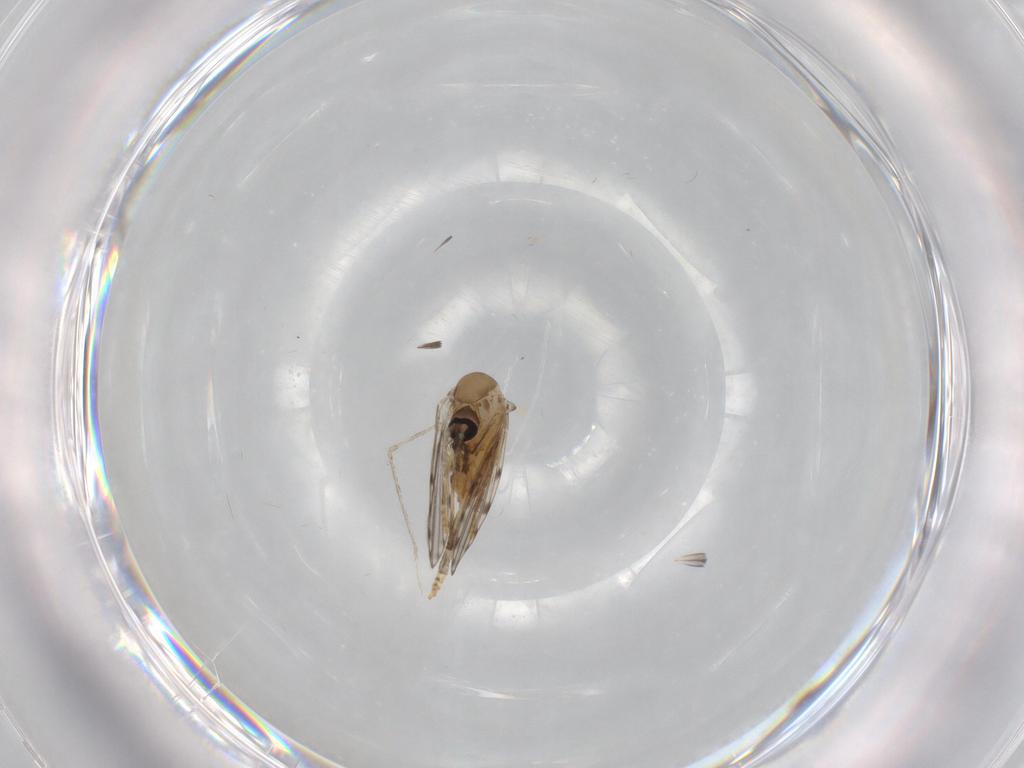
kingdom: Animalia
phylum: Arthropoda
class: Insecta
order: Diptera
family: Cecidomyiidae
